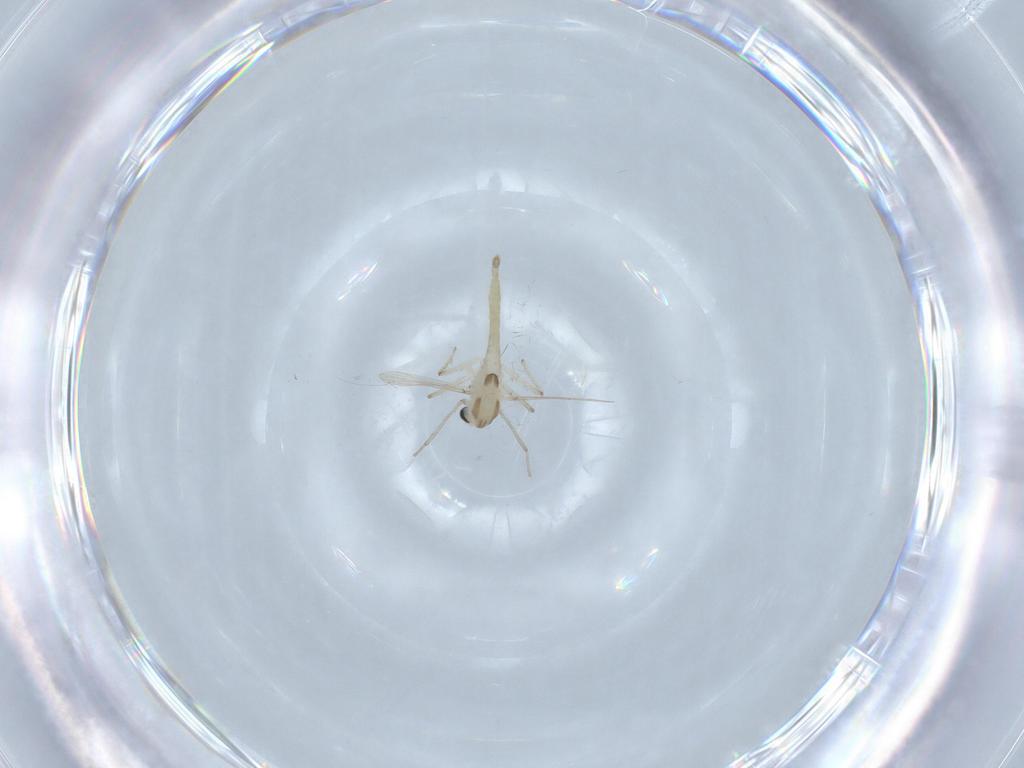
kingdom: Animalia
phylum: Arthropoda
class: Insecta
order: Diptera
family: Chironomidae
